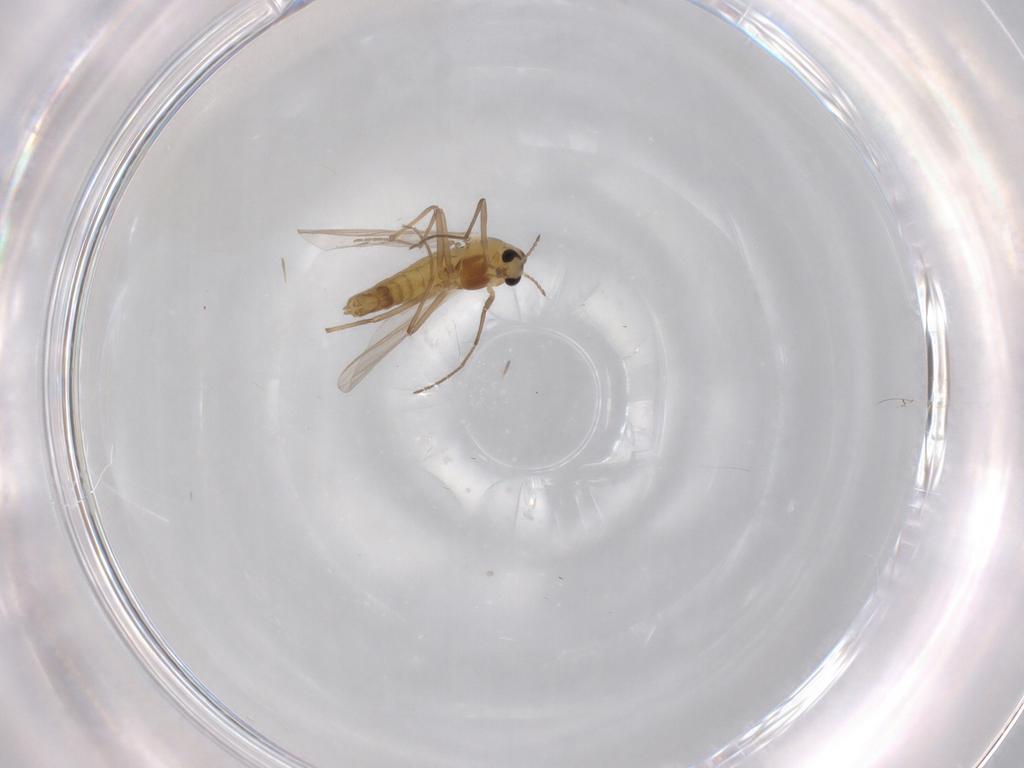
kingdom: Animalia
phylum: Arthropoda
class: Insecta
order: Diptera
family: Chironomidae
